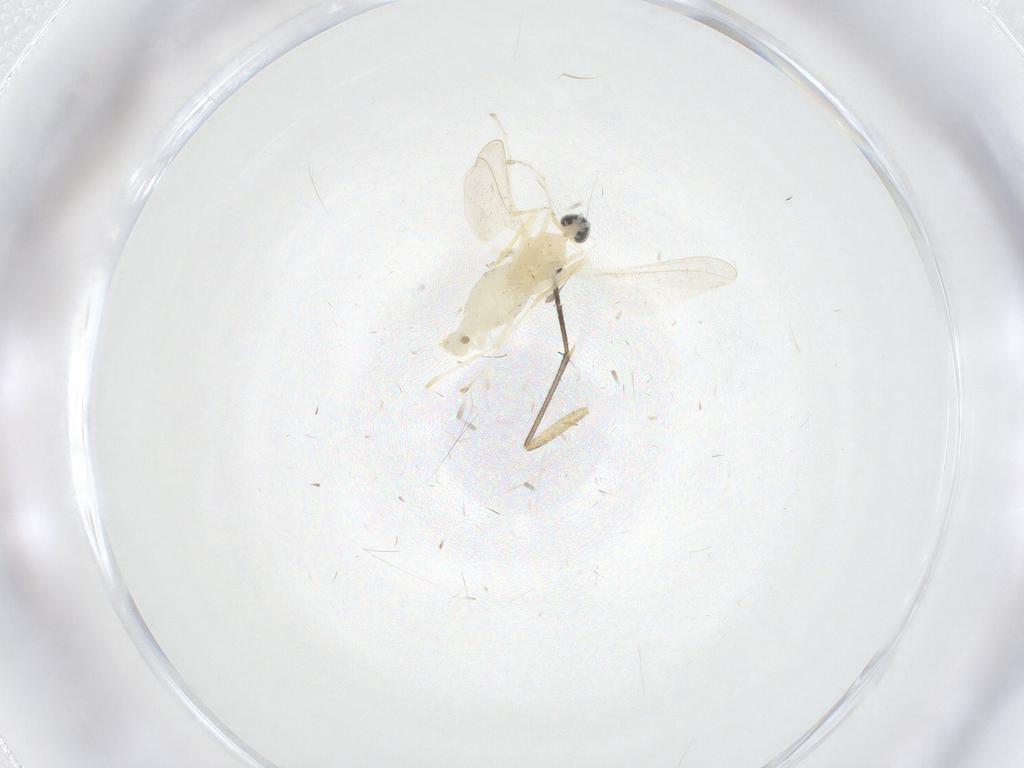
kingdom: Animalia
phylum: Arthropoda
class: Insecta
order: Diptera
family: Cecidomyiidae
